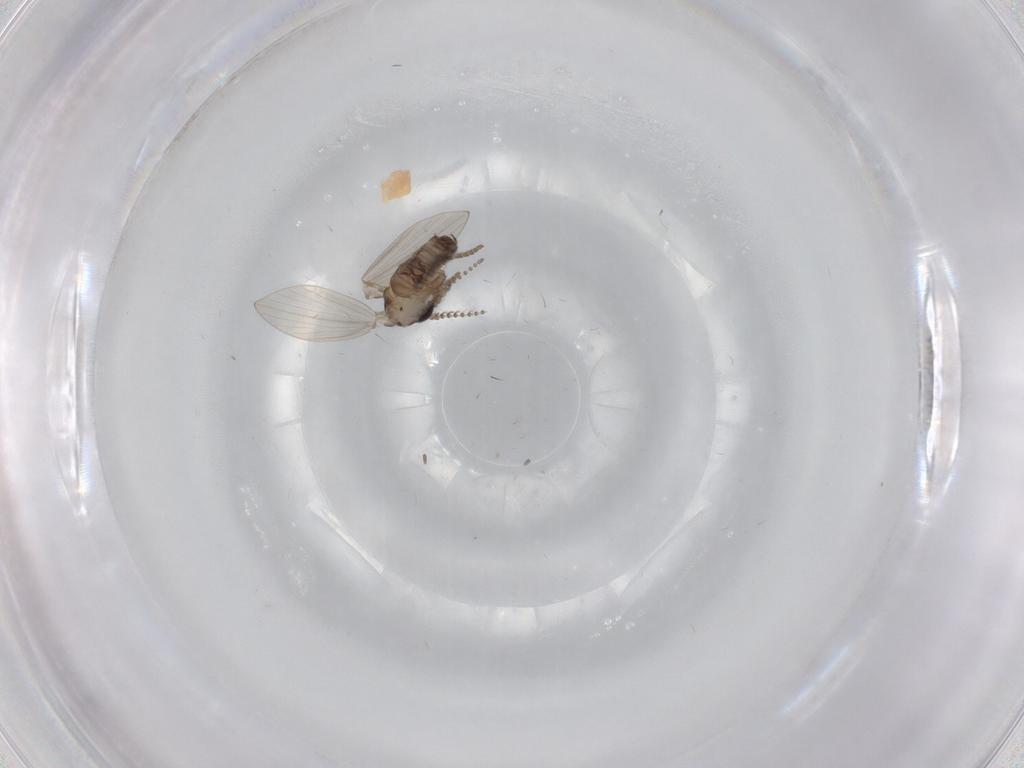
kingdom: Animalia
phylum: Arthropoda
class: Insecta
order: Diptera
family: Psychodidae
